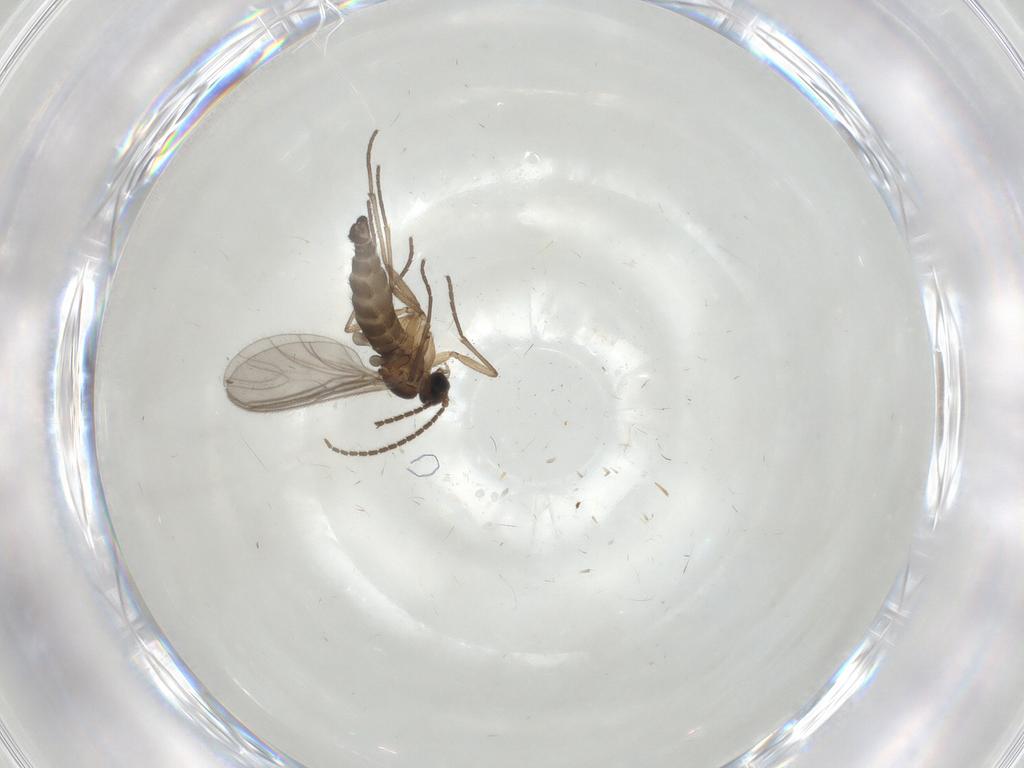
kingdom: Animalia
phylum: Arthropoda
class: Insecta
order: Diptera
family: Phoridae
